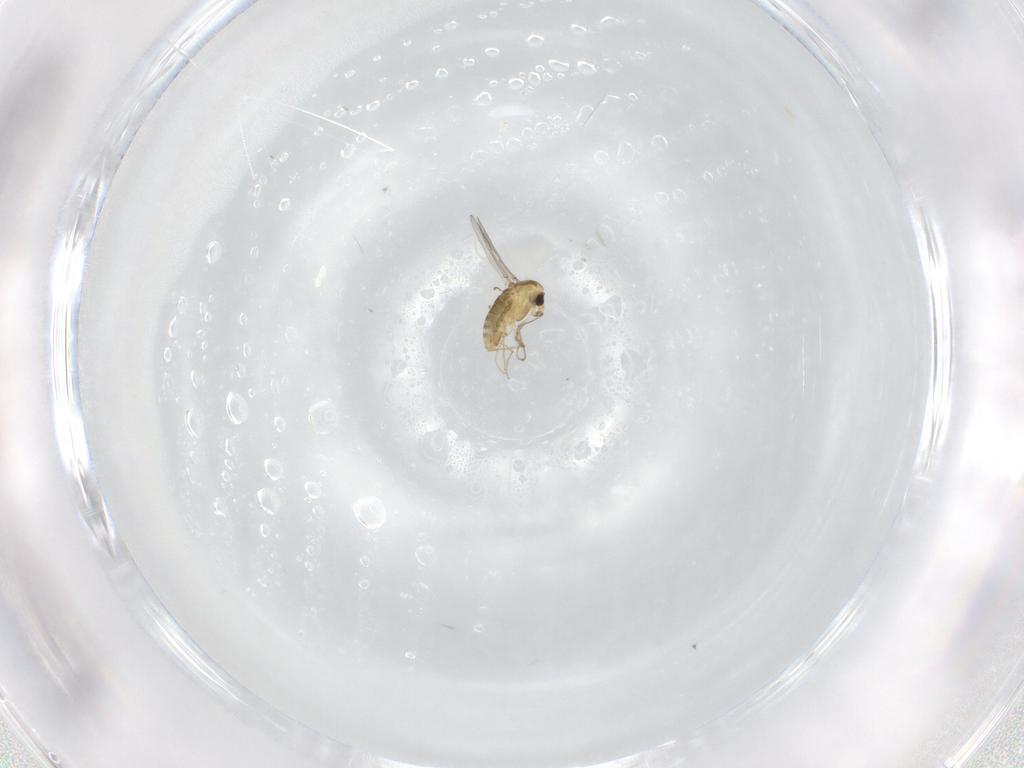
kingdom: Animalia
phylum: Arthropoda
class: Insecta
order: Diptera
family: Chironomidae
